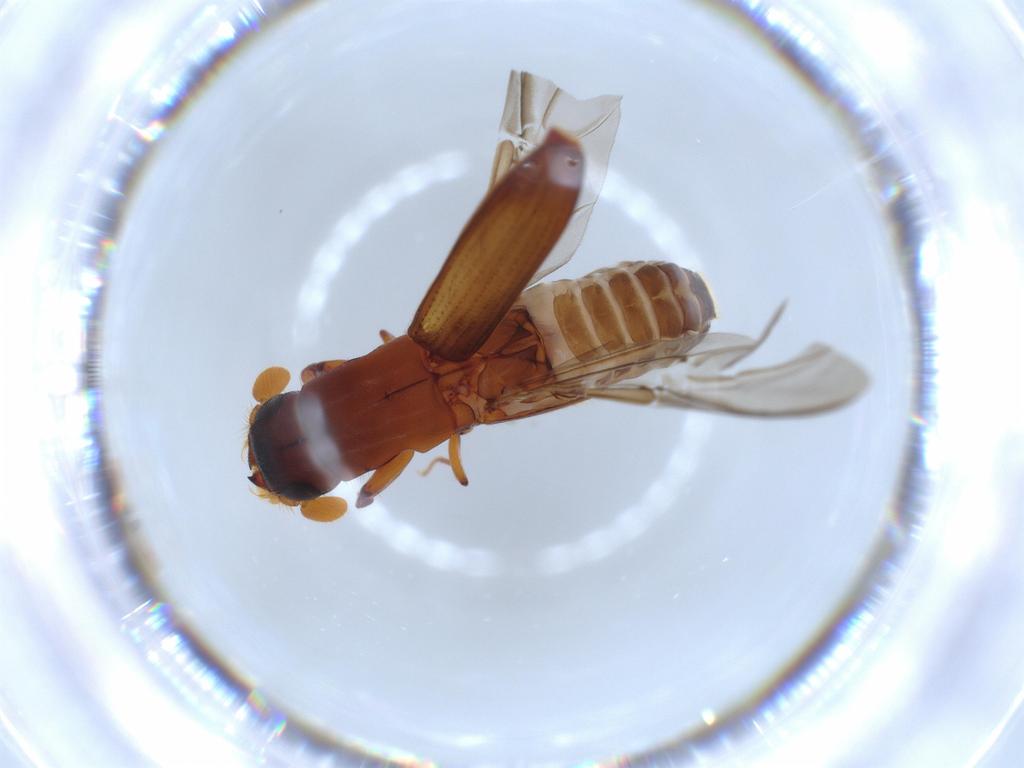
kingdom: Animalia
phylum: Arthropoda
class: Insecta
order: Coleoptera
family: Curculionidae
